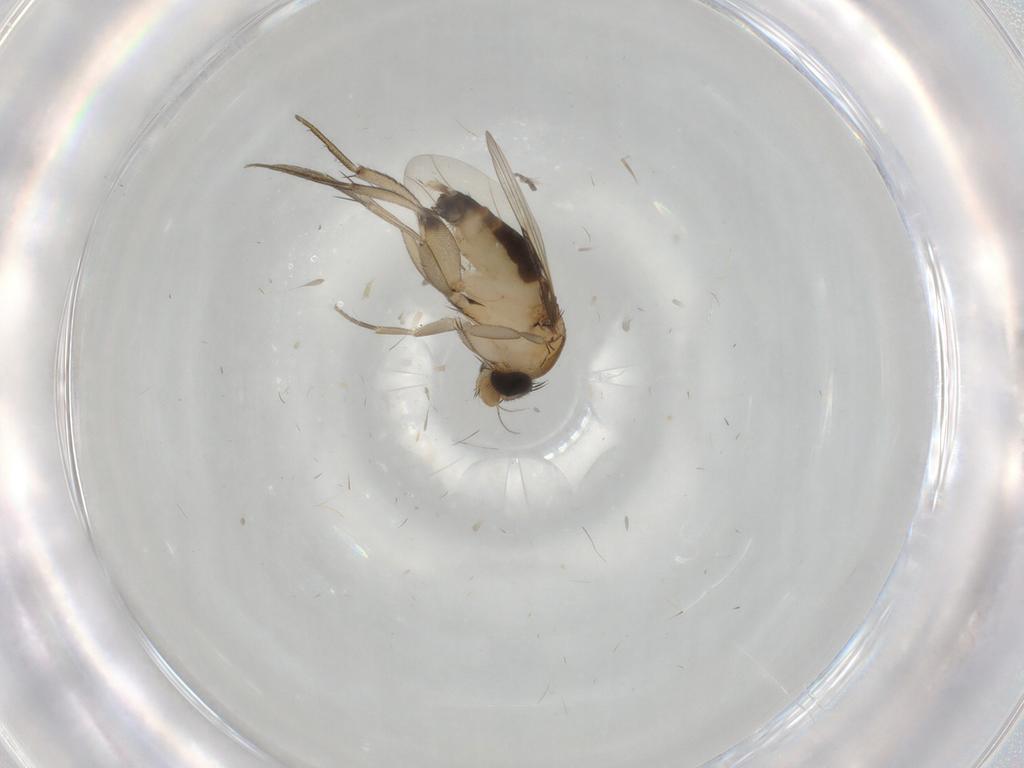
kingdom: Animalia
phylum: Arthropoda
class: Insecta
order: Diptera
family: Phoridae
